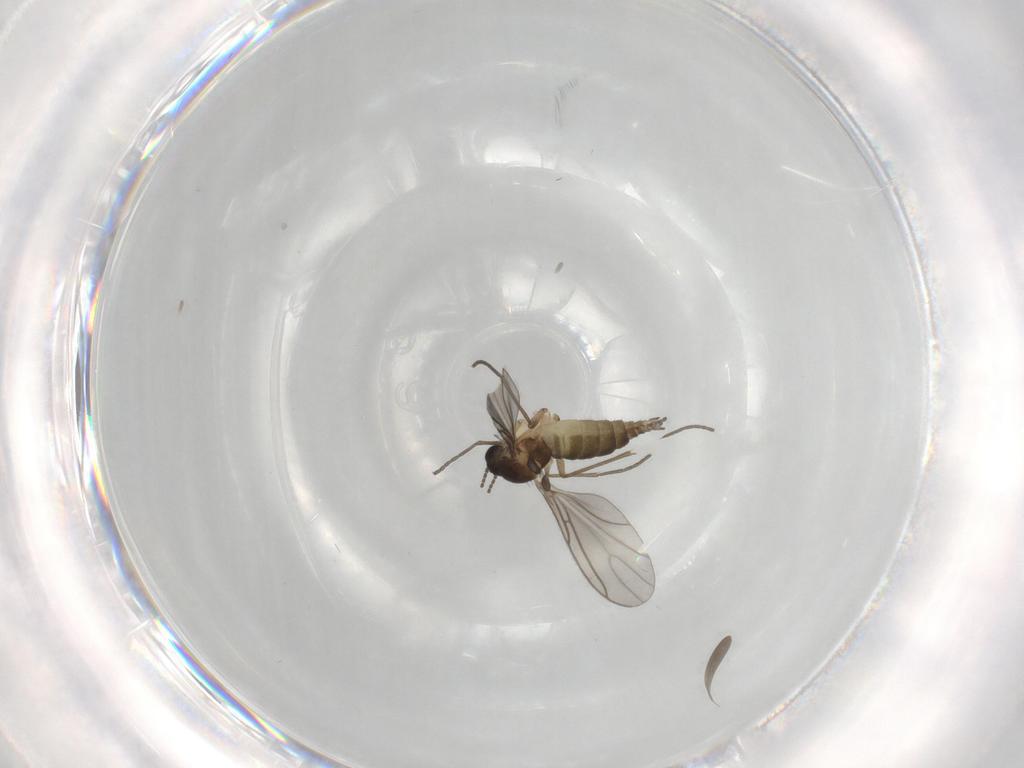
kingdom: Animalia
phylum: Arthropoda
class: Insecta
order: Diptera
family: Sciaridae
